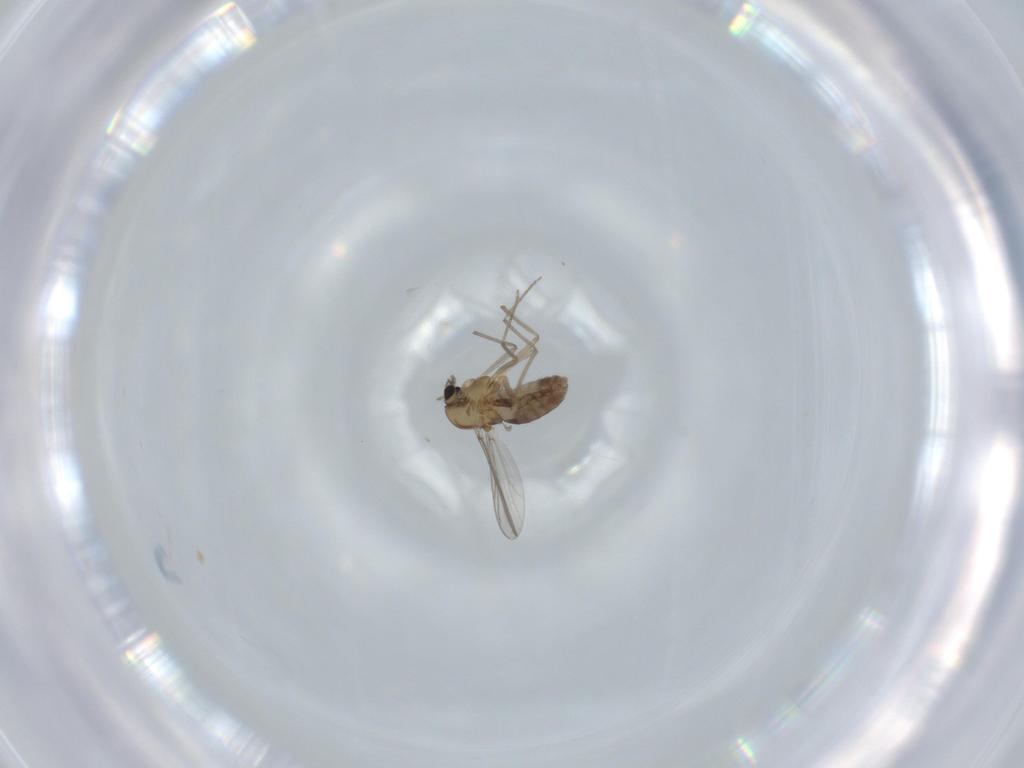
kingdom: Animalia
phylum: Arthropoda
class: Insecta
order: Diptera
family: Chironomidae
